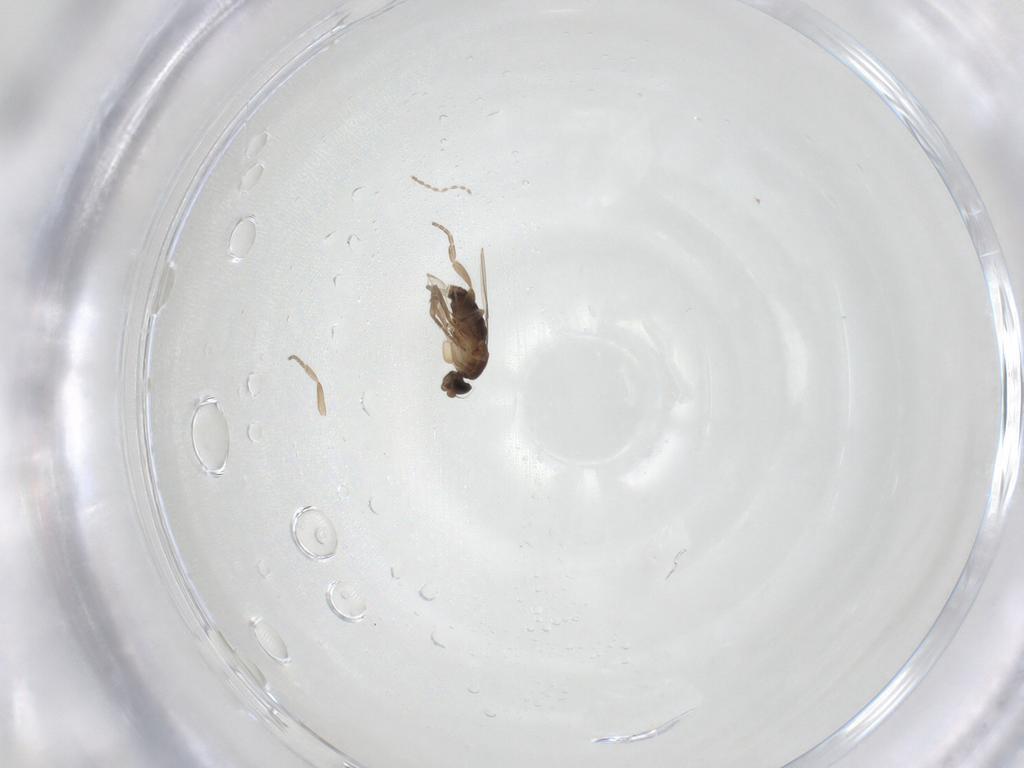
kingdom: Animalia
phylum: Arthropoda
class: Insecta
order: Diptera
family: Cecidomyiidae
